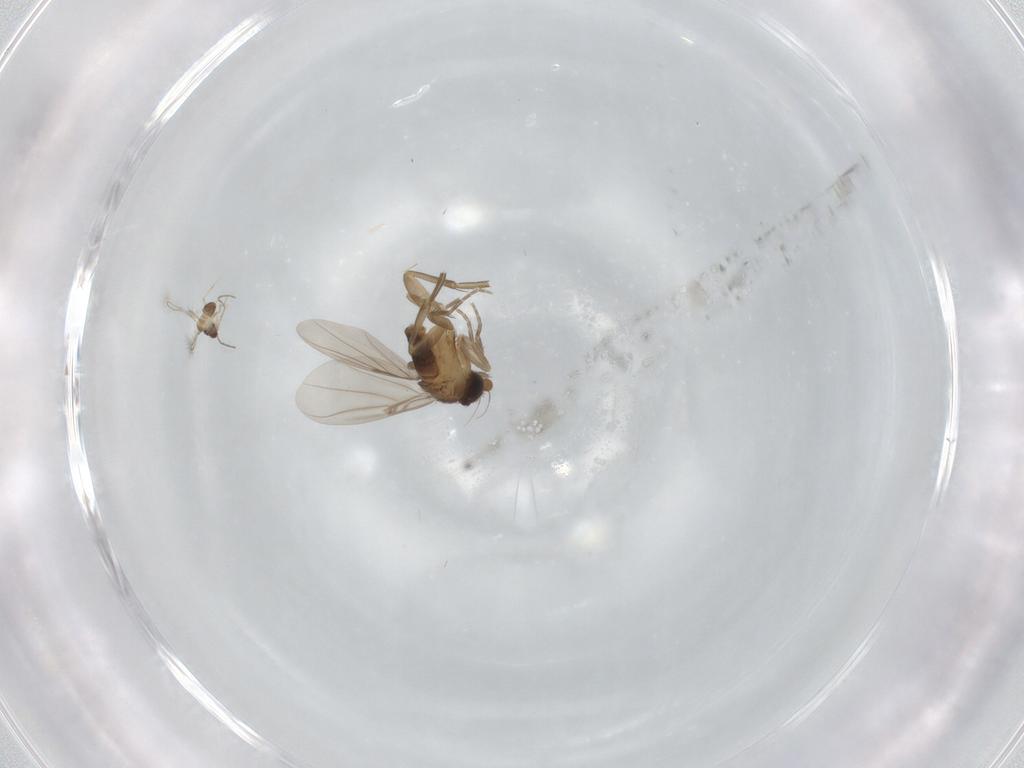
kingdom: Animalia
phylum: Arthropoda
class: Insecta
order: Diptera
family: Phoridae
